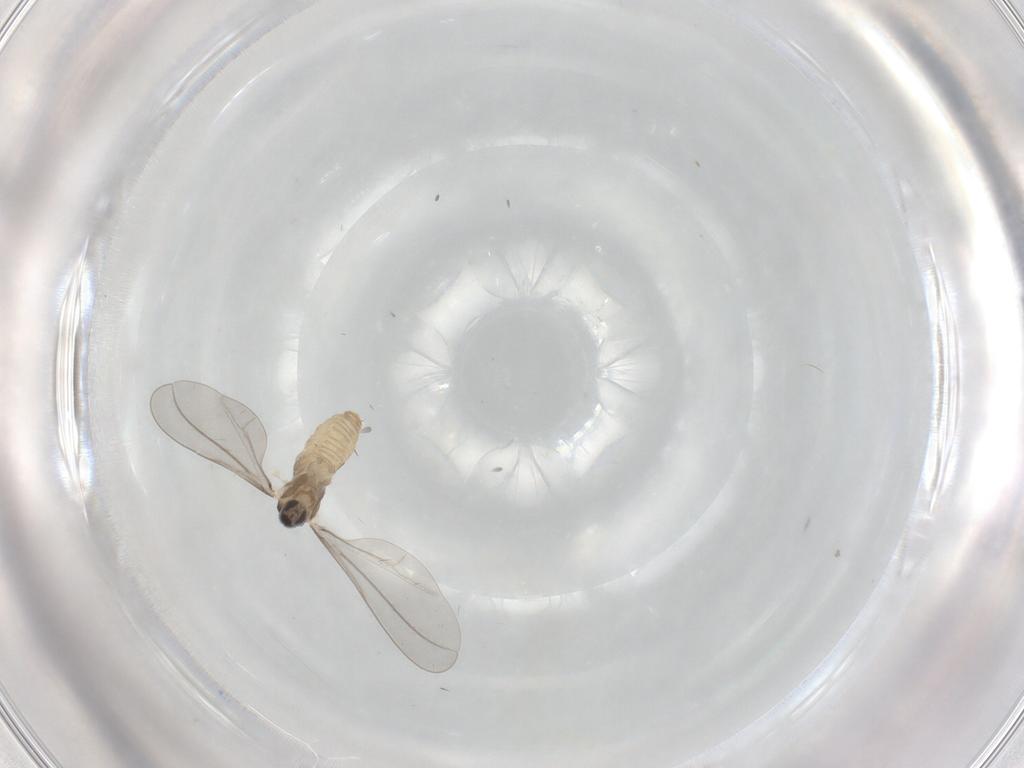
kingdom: Animalia
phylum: Arthropoda
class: Insecta
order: Diptera
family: Cecidomyiidae
